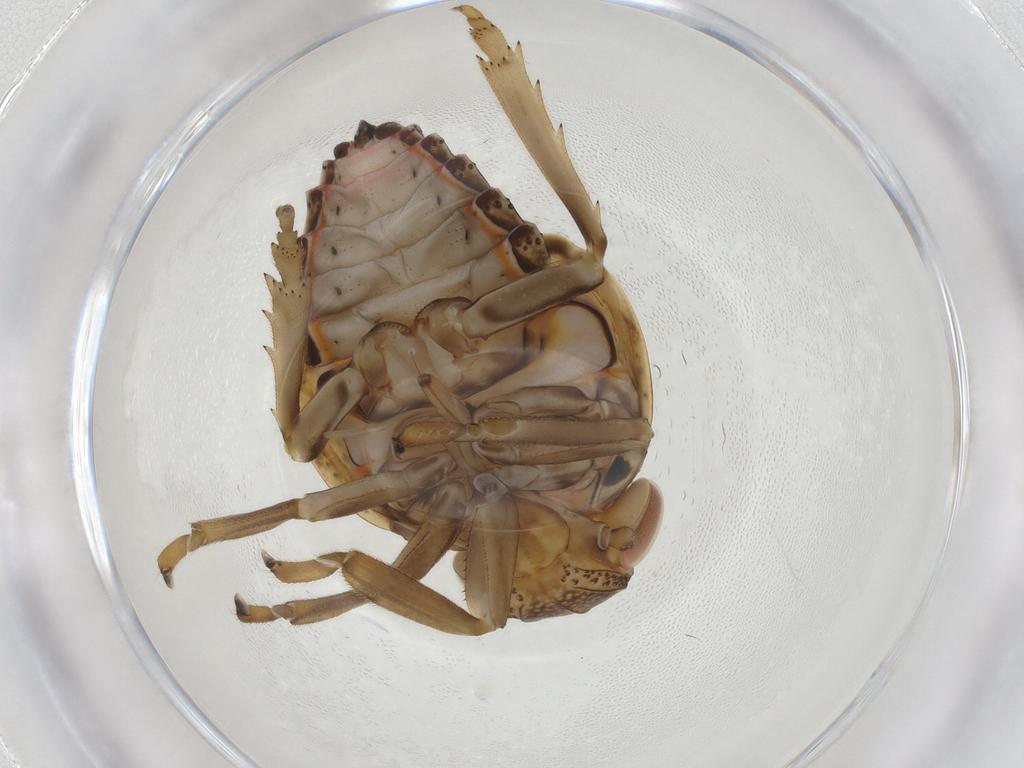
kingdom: Animalia
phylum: Arthropoda
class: Insecta
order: Hemiptera
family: Issidae
